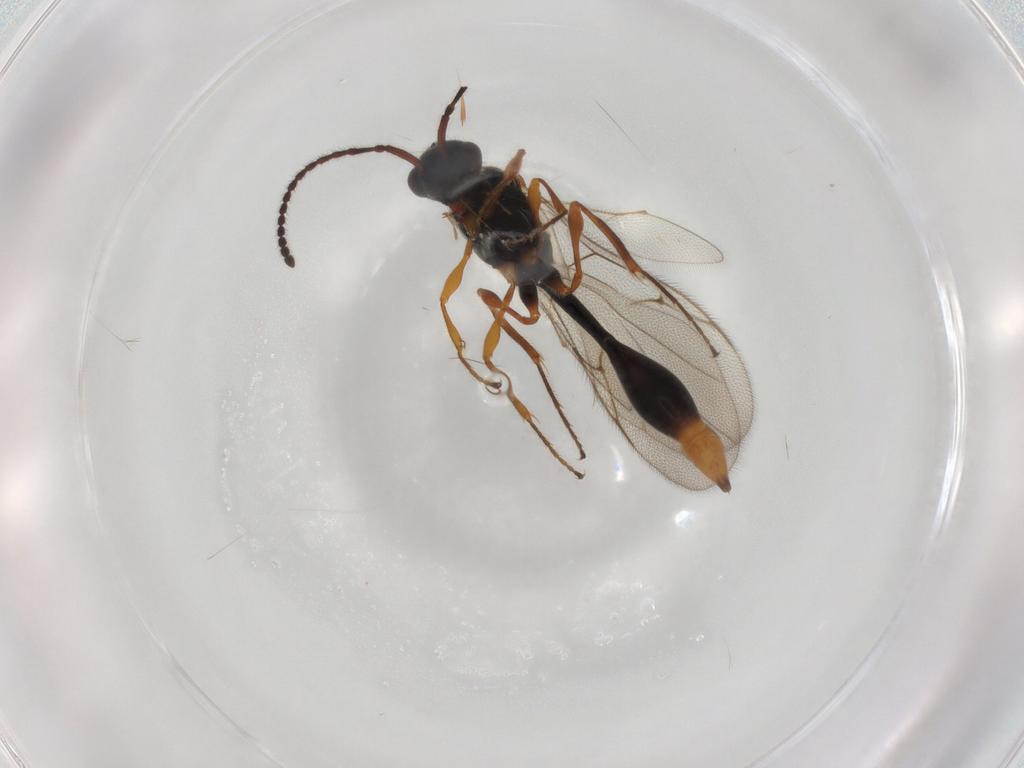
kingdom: Animalia
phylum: Arthropoda
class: Insecta
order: Hymenoptera
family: Diapriidae
